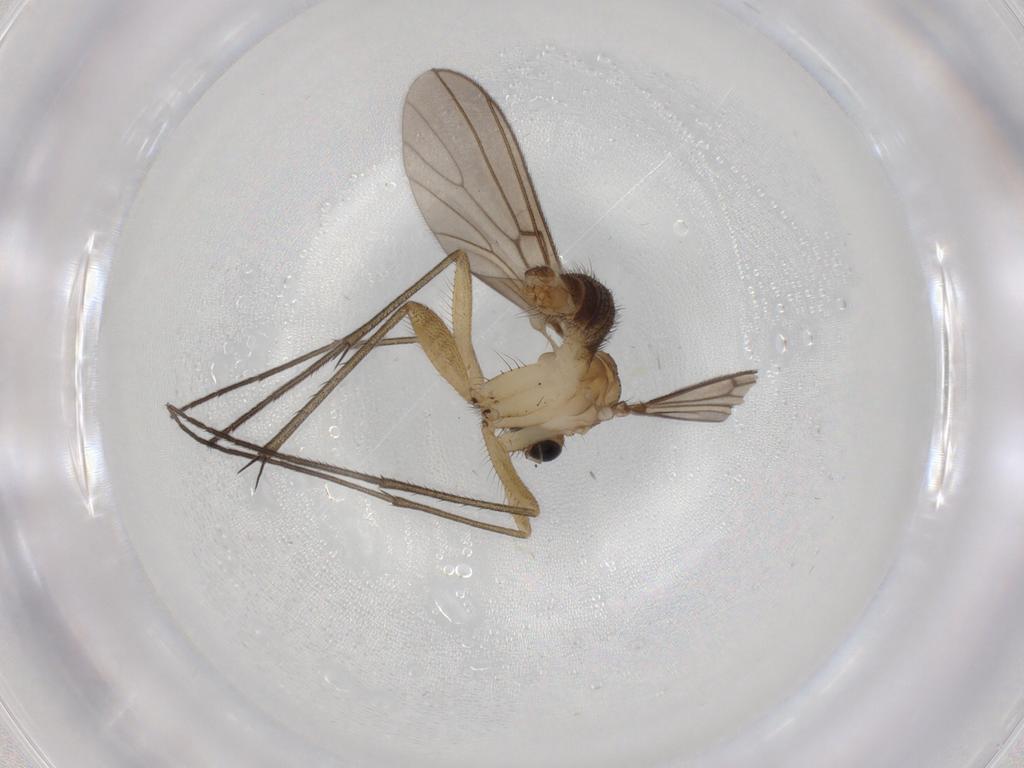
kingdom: Animalia
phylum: Arthropoda
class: Insecta
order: Diptera
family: Mycetophilidae
